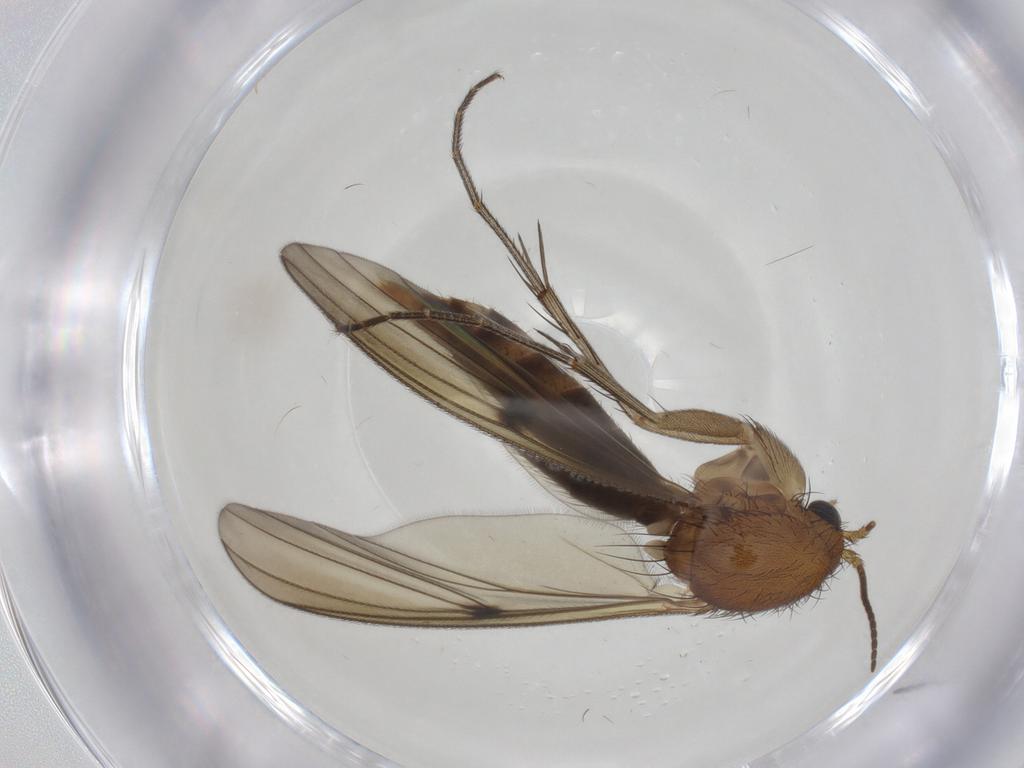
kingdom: Animalia
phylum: Arthropoda
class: Insecta
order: Diptera
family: Mycetophilidae
